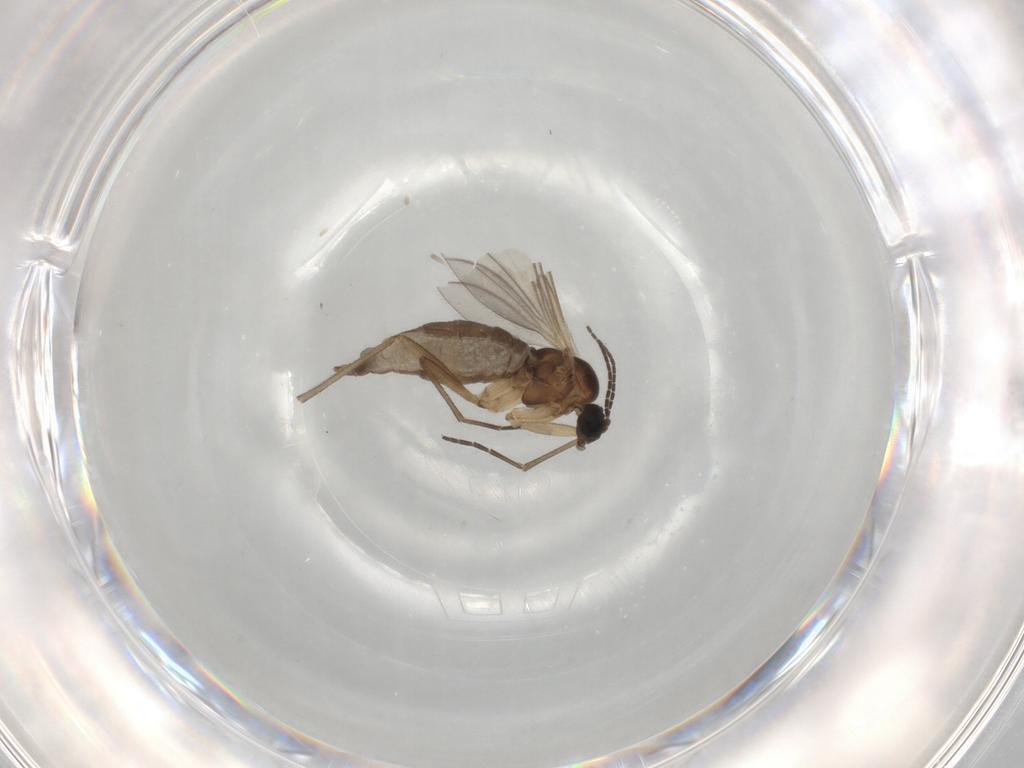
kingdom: Animalia
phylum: Arthropoda
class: Insecta
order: Diptera
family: Sciaridae
